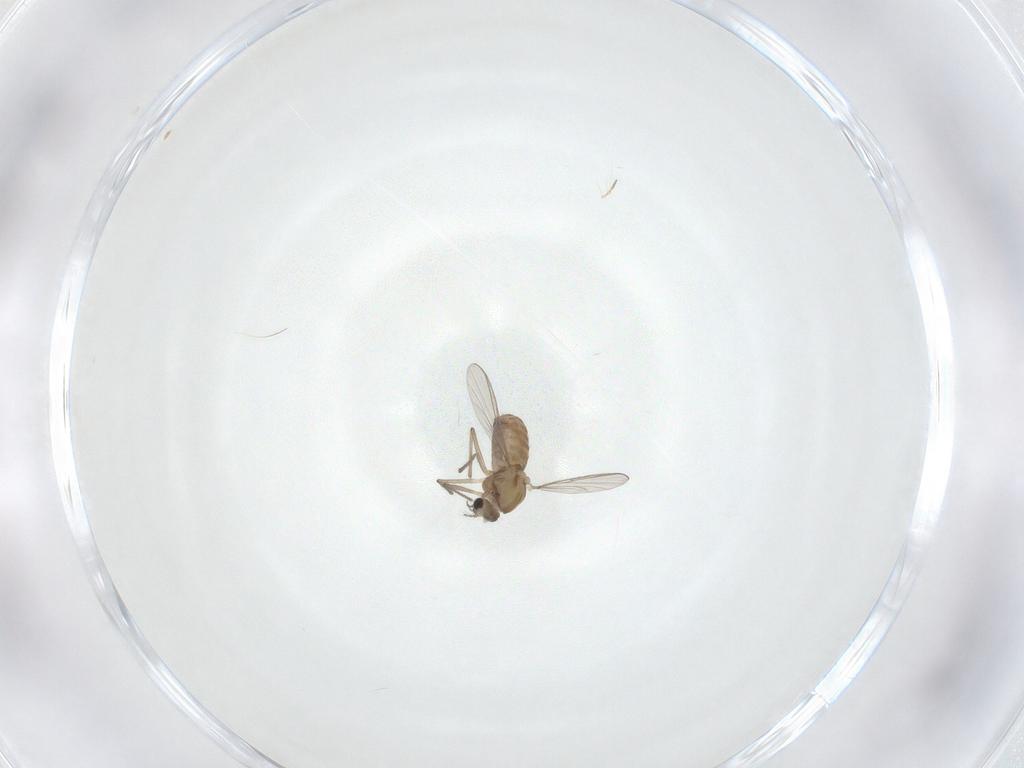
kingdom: Animalia
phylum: Arthropoda
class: Insecta
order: Diptera
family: Chironomidae
